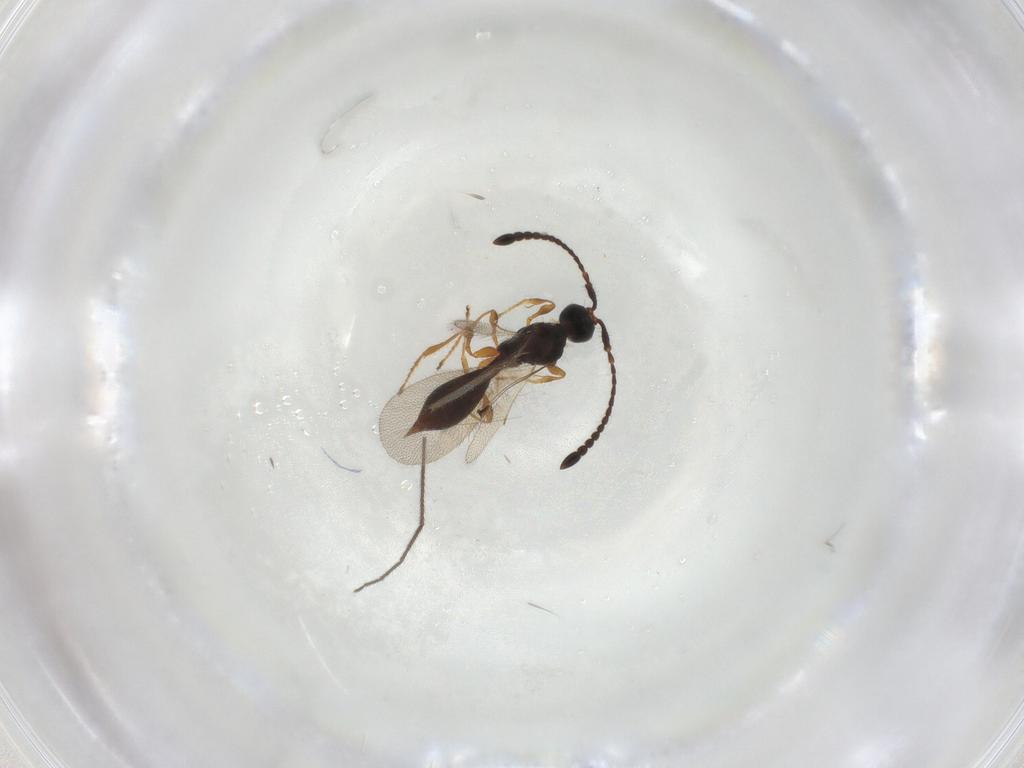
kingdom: Animalia
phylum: Arthropoda
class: Insecta
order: Hymenoptera
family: Diapriidae
